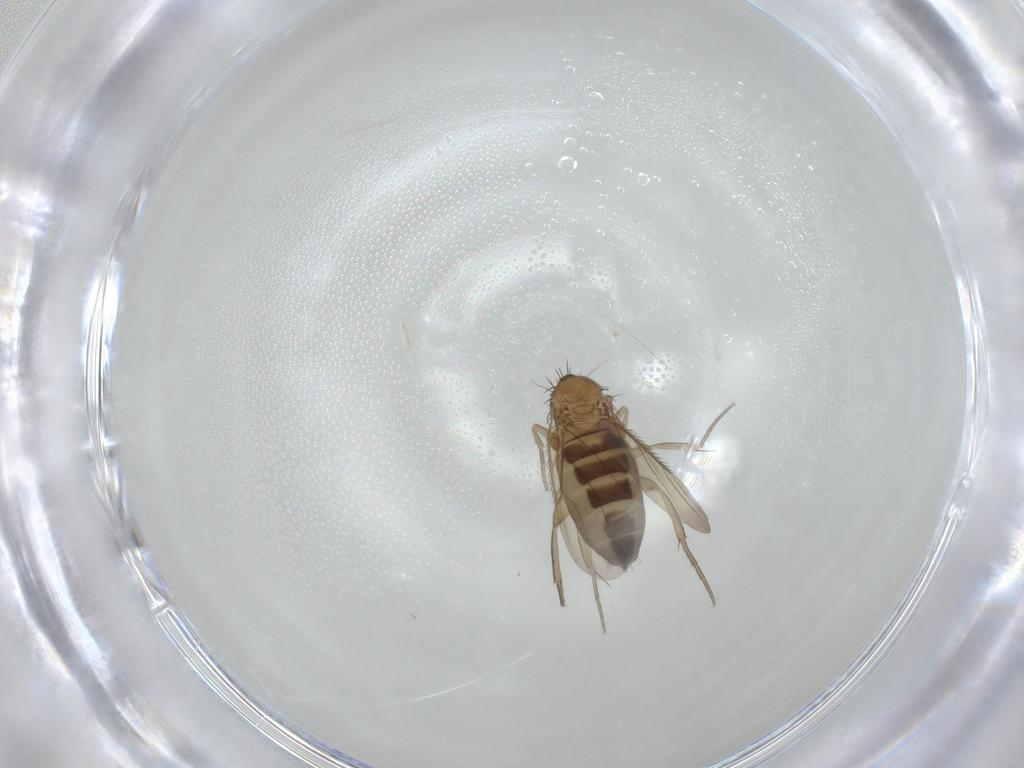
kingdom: Animalia
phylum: Arthropoda
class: Insecta
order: Diptera
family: Phoridae
